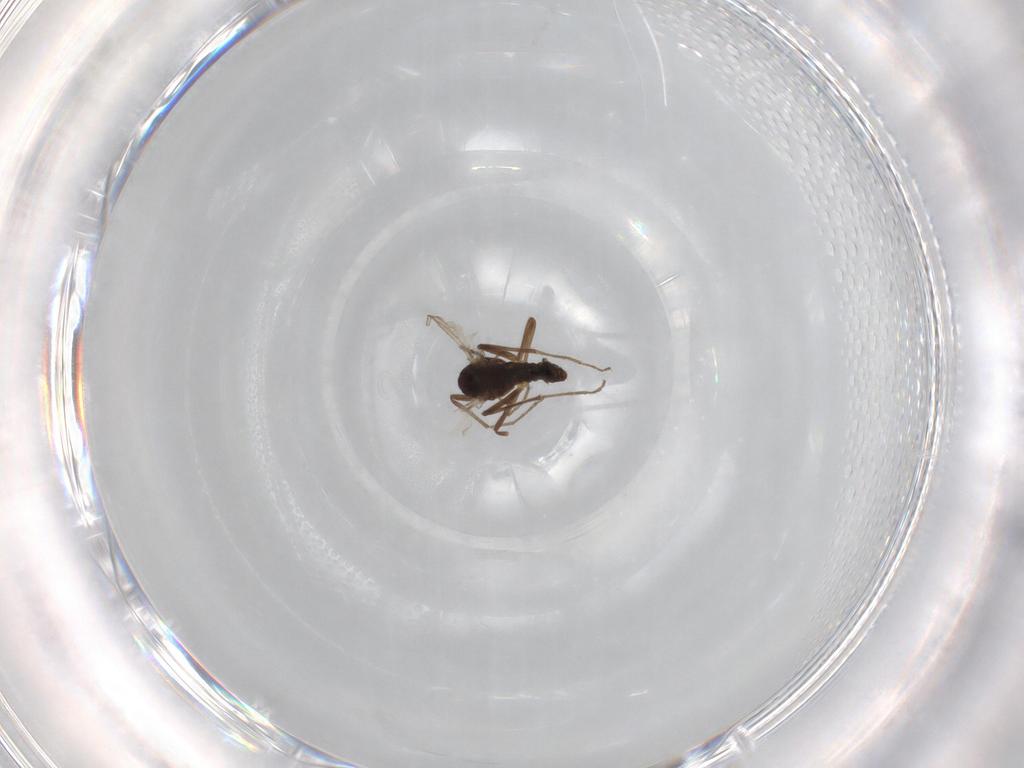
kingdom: Animalia
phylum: Arthropoda
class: Insecta
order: Diptera
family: Chironomidae
